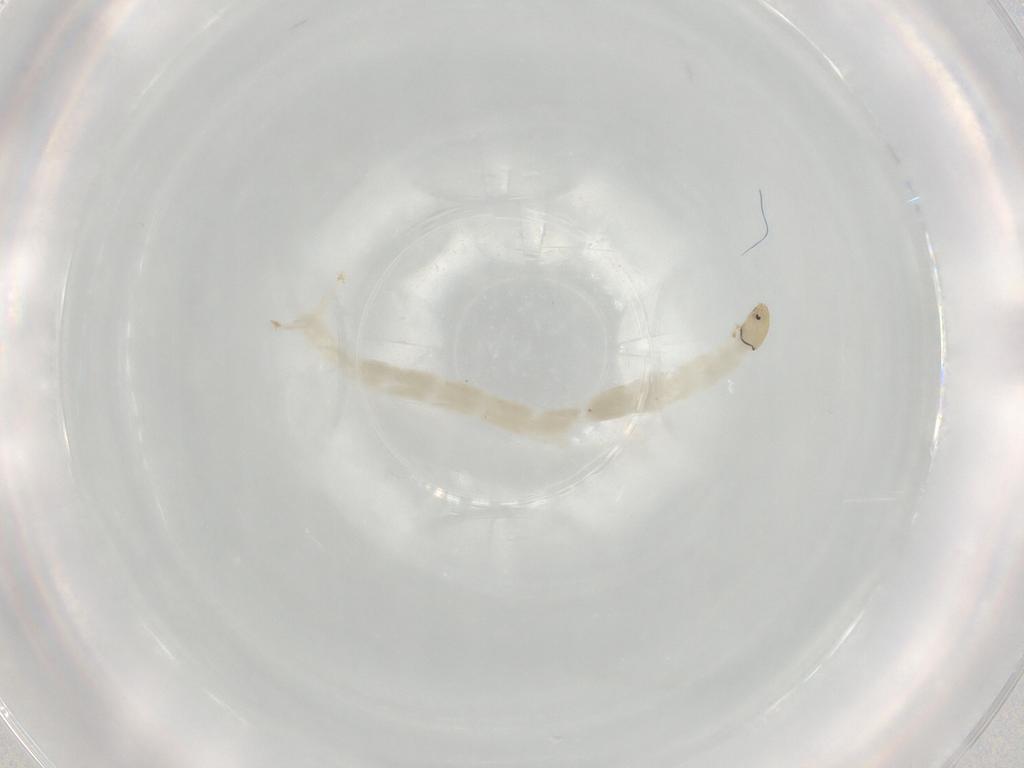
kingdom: Animalia
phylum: Arthropoda
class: Insecta
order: Diptera
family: Chironomidae
